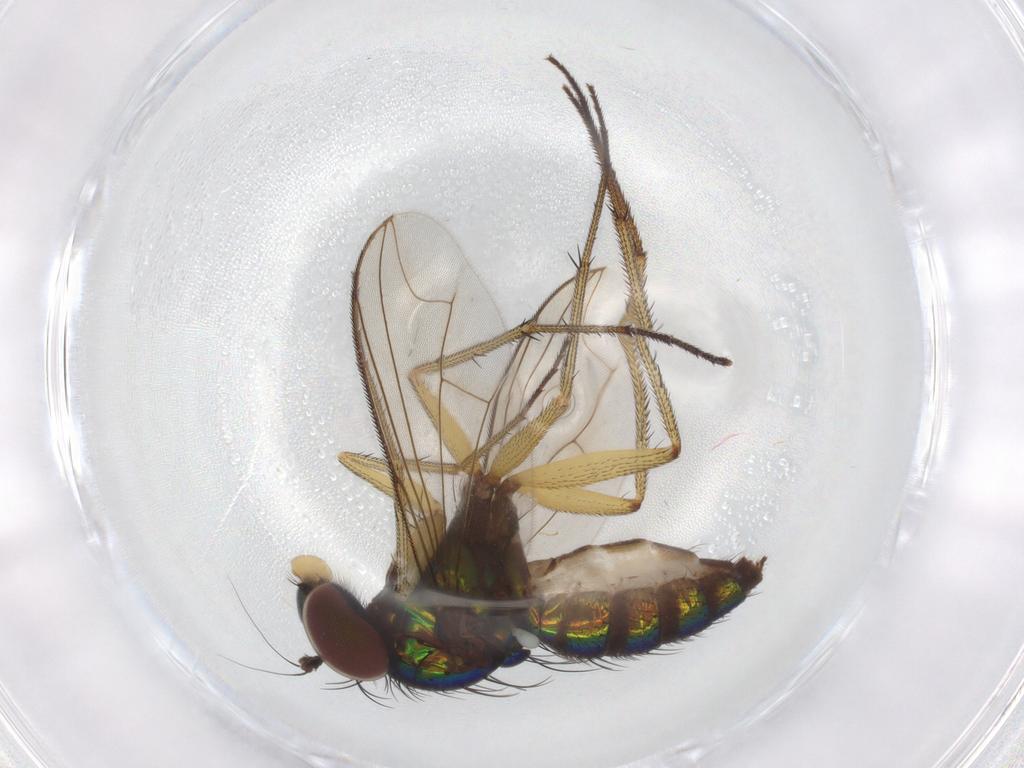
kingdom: Animalia
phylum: Arthropoda
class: Insecta
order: Diptera
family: Dolichopodidae
